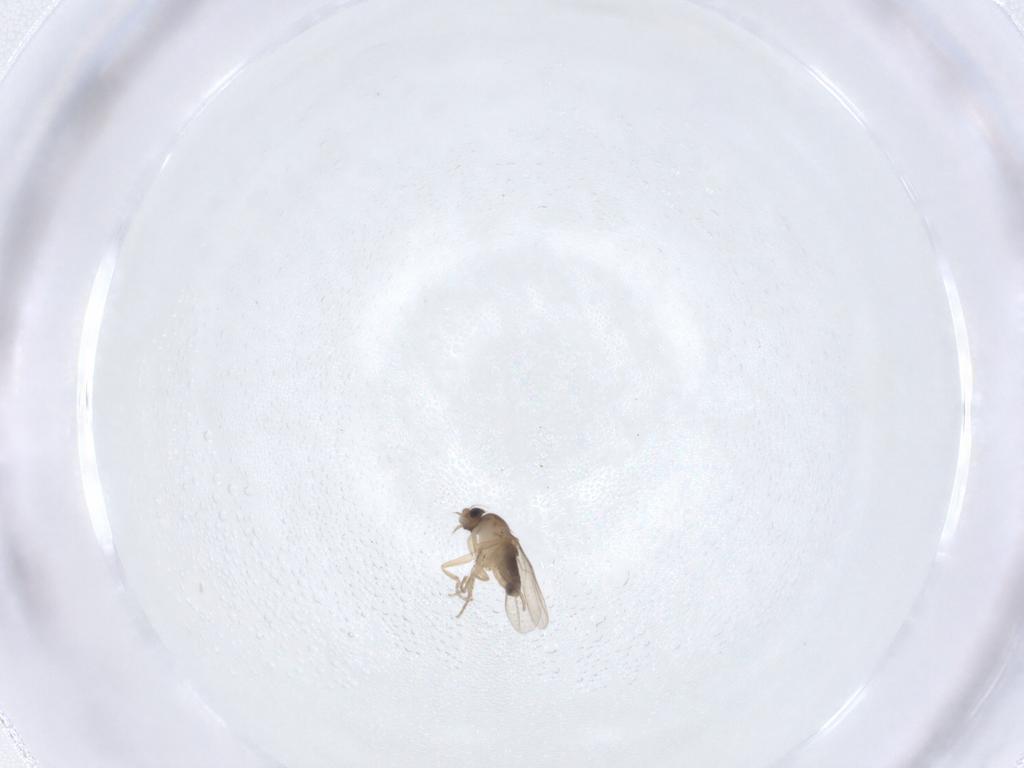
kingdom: Animalia
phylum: Arthropoda
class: Insecta
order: Diptera
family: Phoridae
